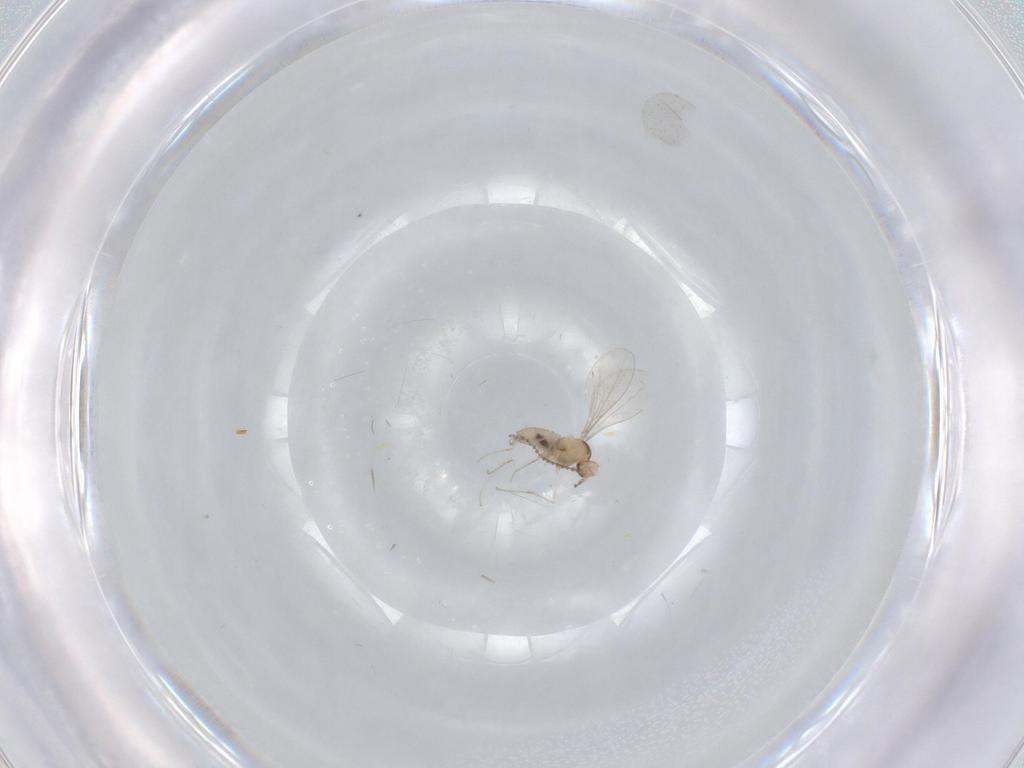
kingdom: Animalia
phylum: Arthropoda
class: Insecta
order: Diptera
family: Cecidomyiidae
